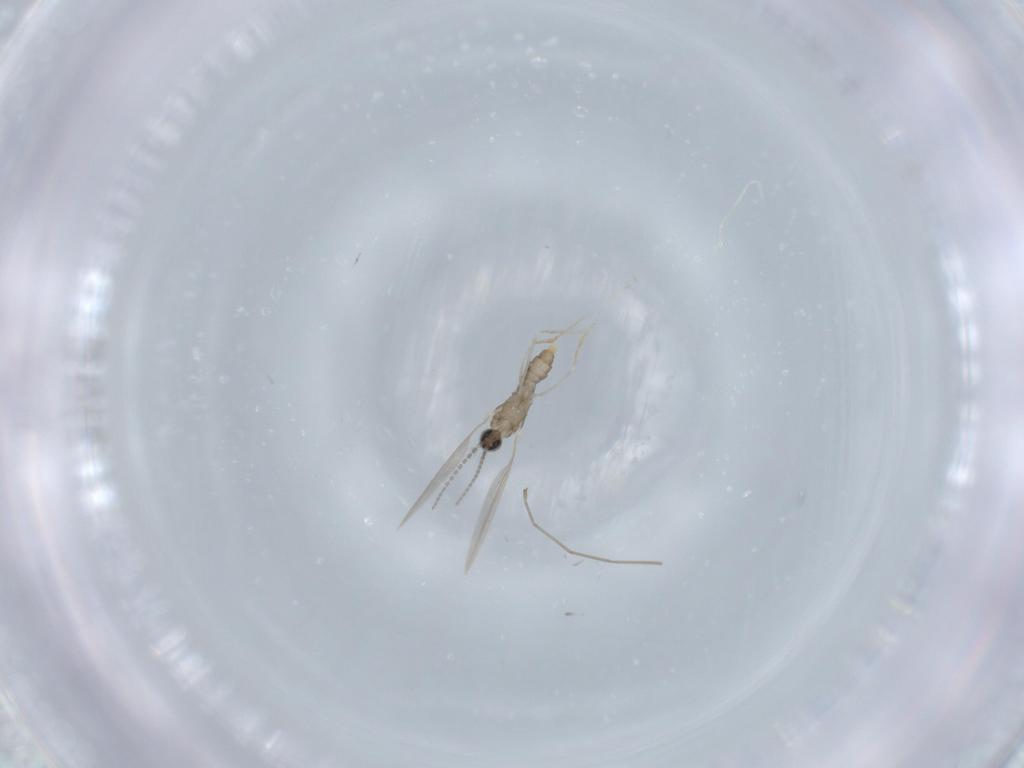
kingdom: Animalia
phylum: Arthropoda
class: Insecta
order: Diptera
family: Cecidomyiidae
